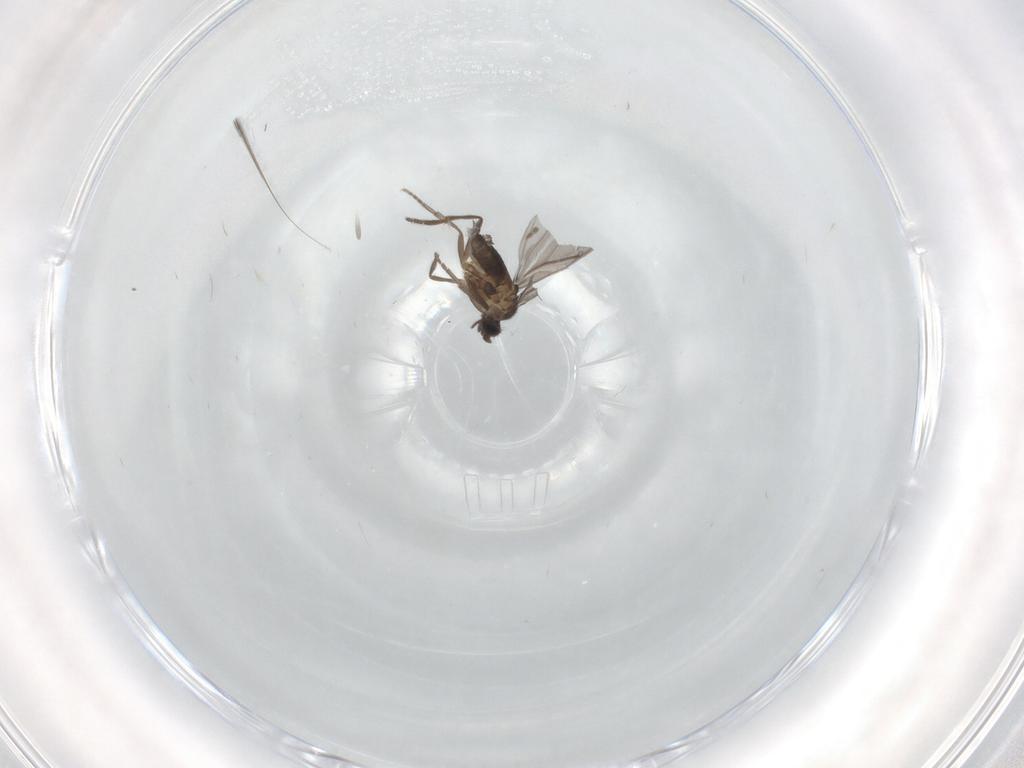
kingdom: Animalia
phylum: Arthropoda
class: Insecta
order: Diptera
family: Phoridae
